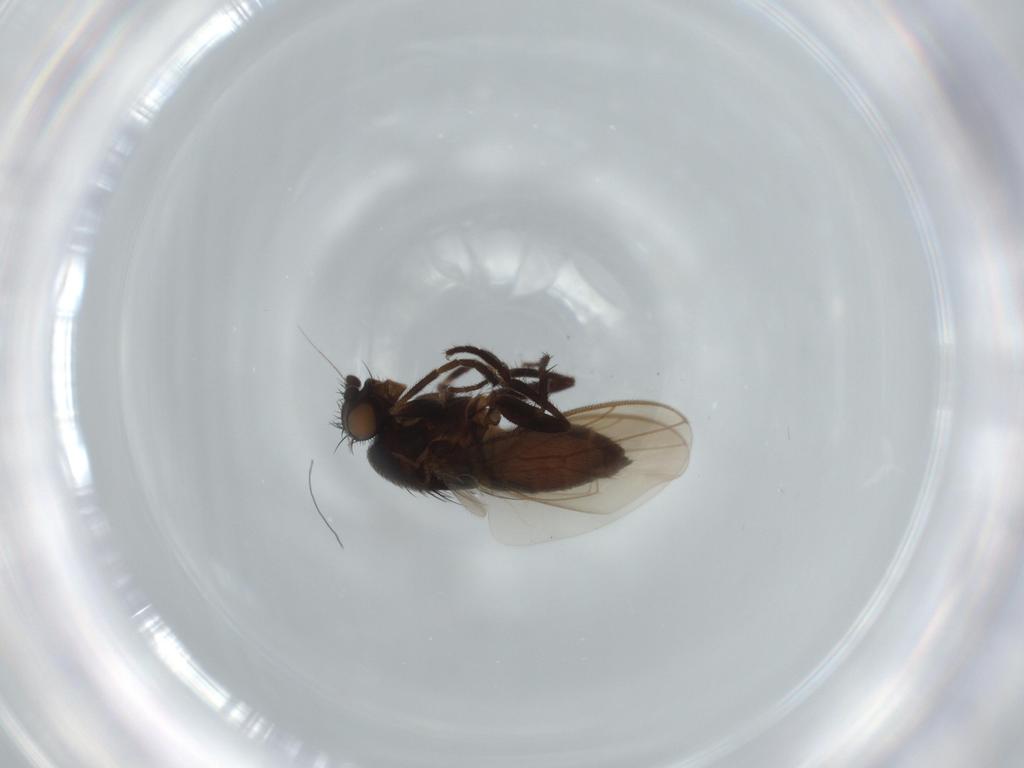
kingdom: Animalia
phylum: Arthropoda
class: Insecta
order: Diptera
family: Sphaeroceridae
